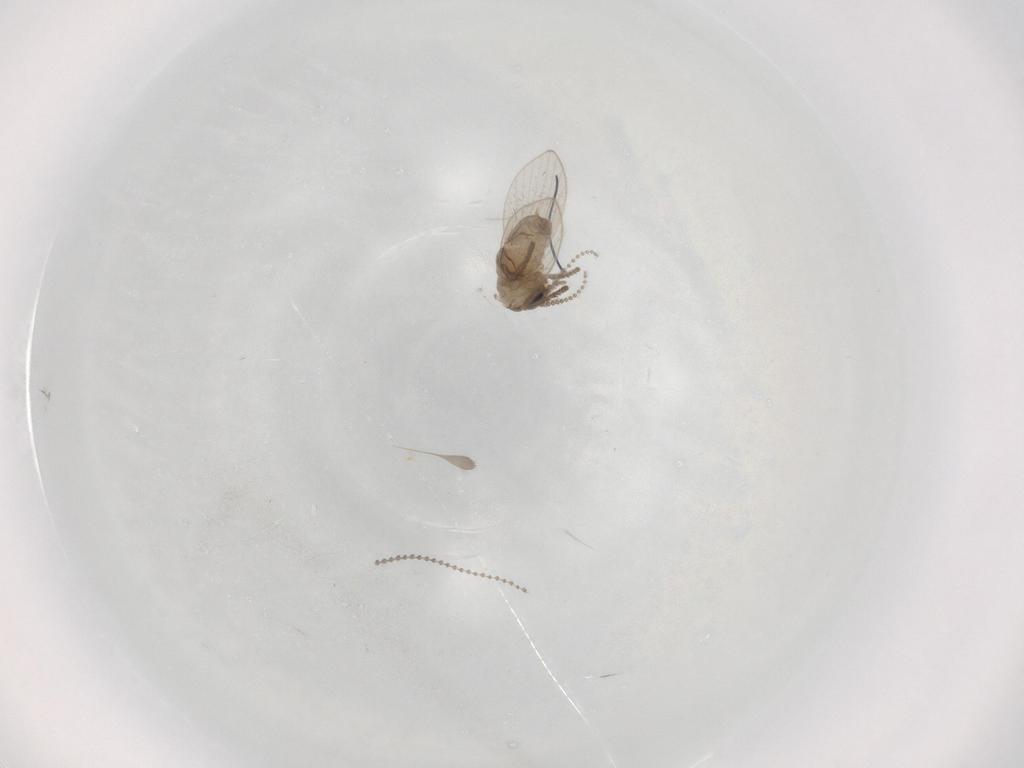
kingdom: Animalia
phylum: Arthropoda
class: Insecta
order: Diptera
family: Psychodidae
